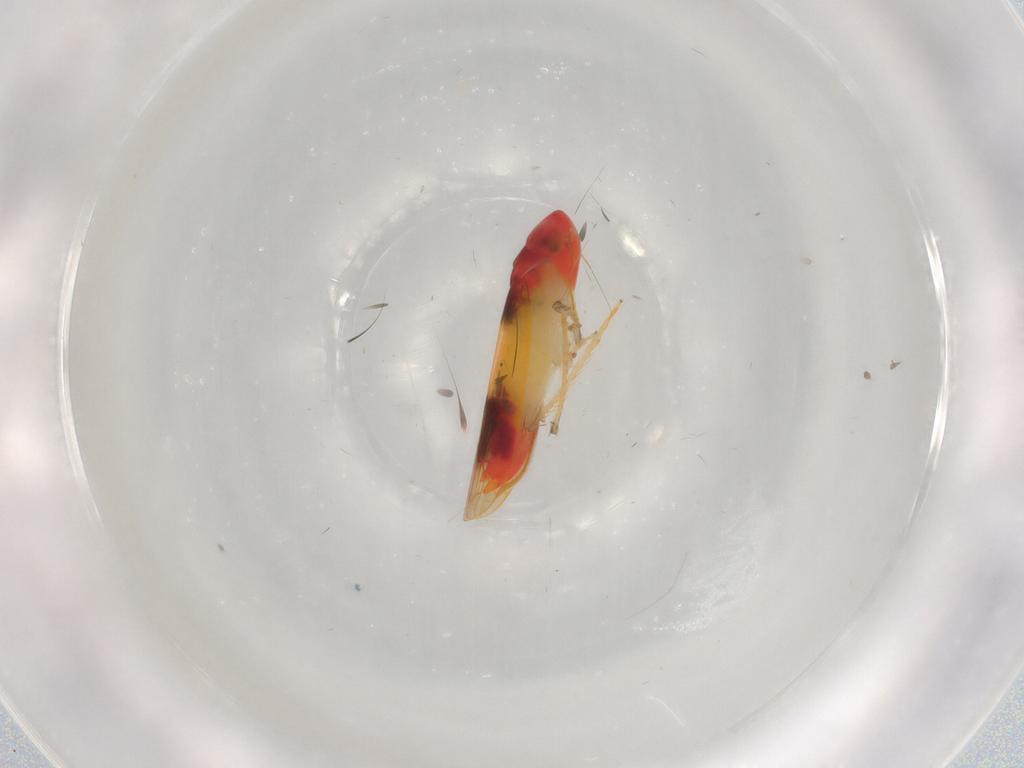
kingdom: Animalia
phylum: Arthropoda
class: Insecta
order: Hemiptera
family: Cicadellidae
